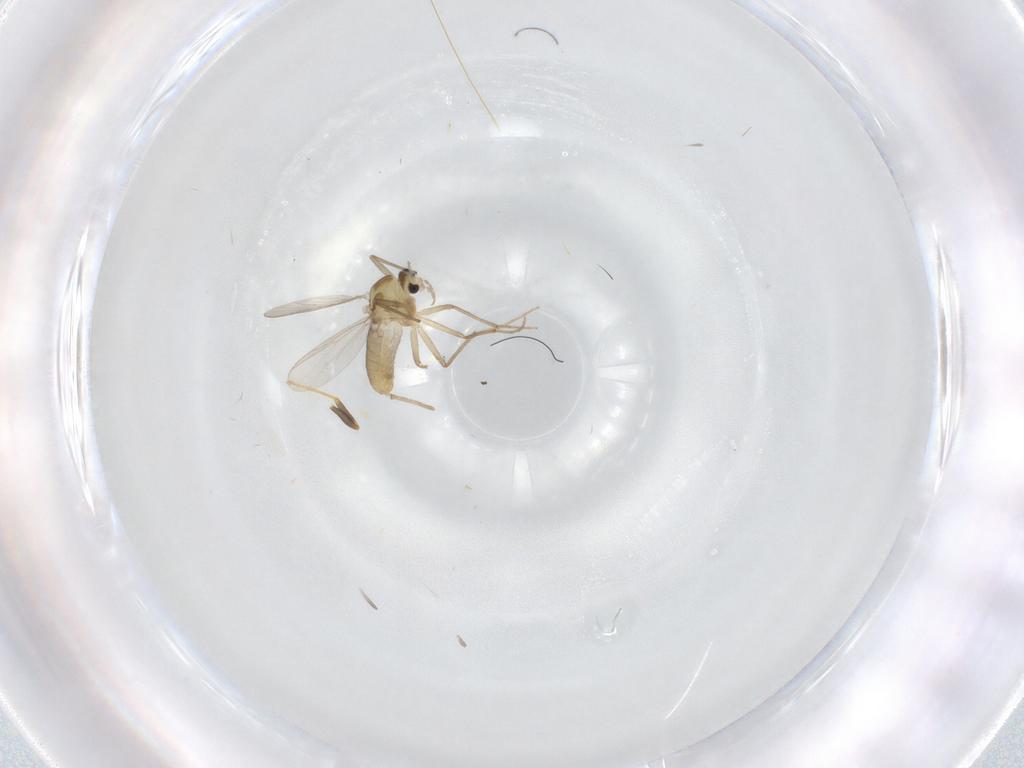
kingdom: Animalia
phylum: Arthropoda
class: Insecta
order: Diptera
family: Chironomidae
